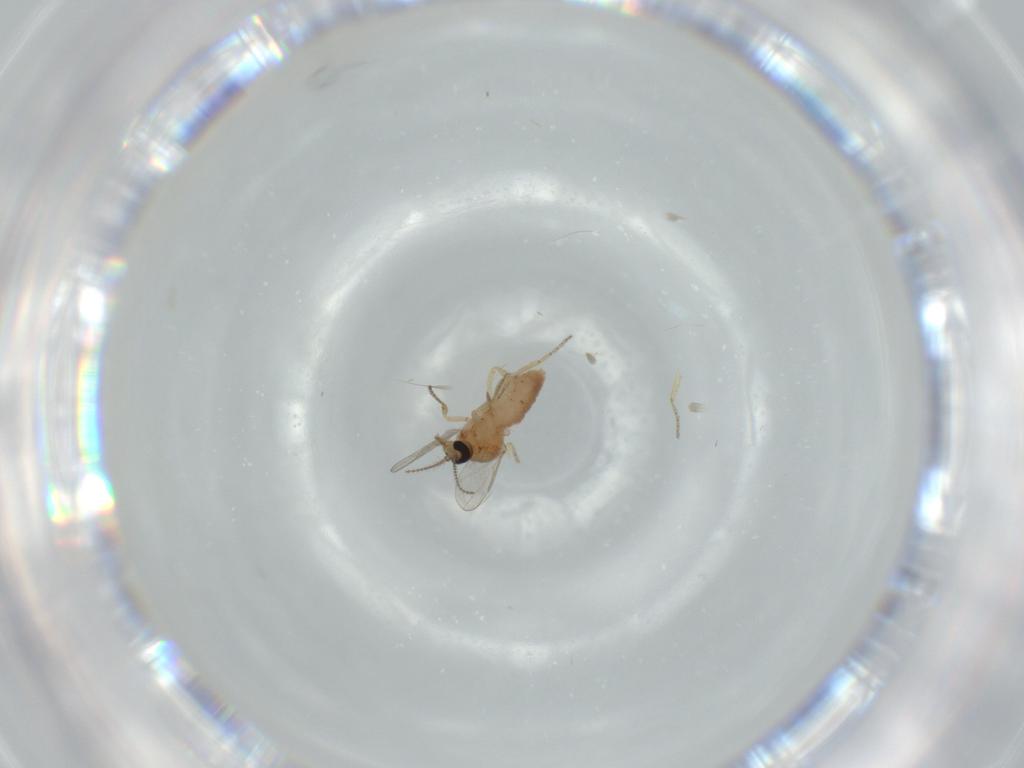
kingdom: Animalia
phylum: Arthropoda
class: Insecta
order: Diptera
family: Ceratopogonidae
